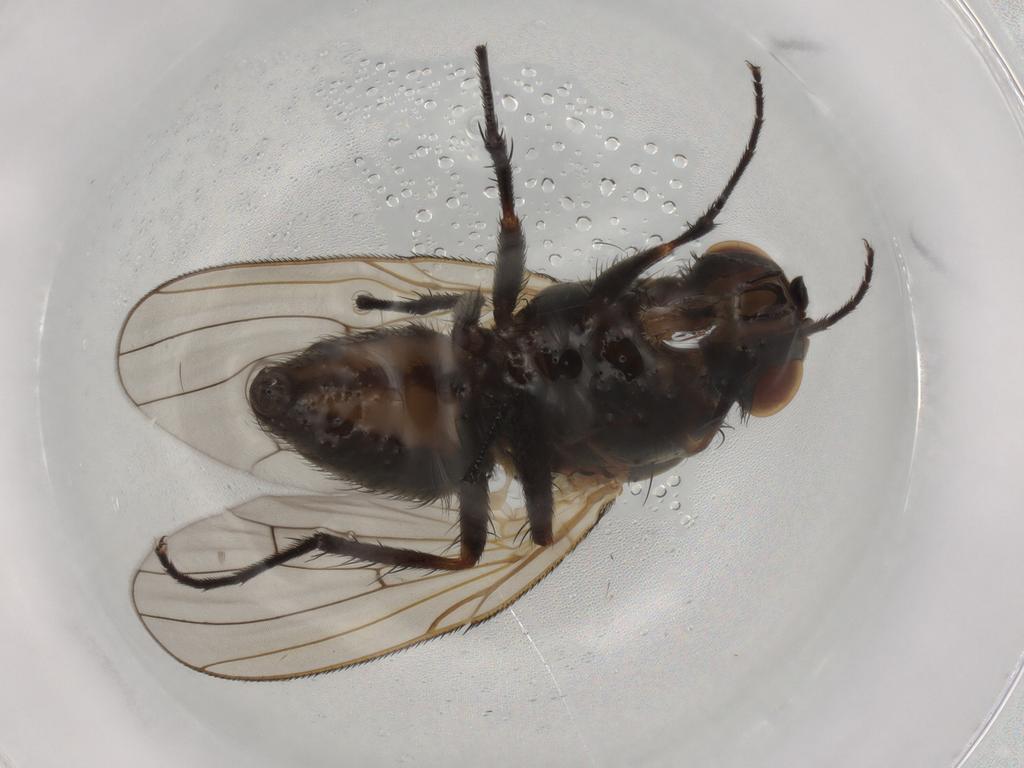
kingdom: Animalia
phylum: Arthropoda
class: Insecta
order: Diptera
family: Anthomyiidae
